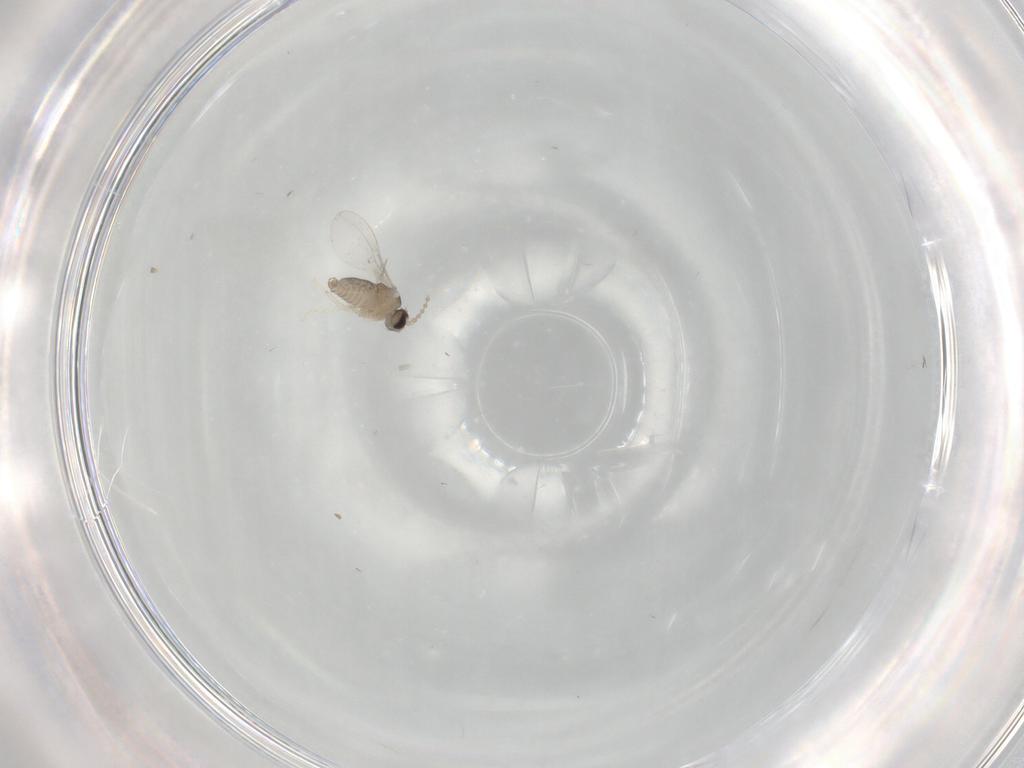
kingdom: Animalia
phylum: Arthropoda
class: Insecta
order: Diptera
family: Cecidomyiidae
